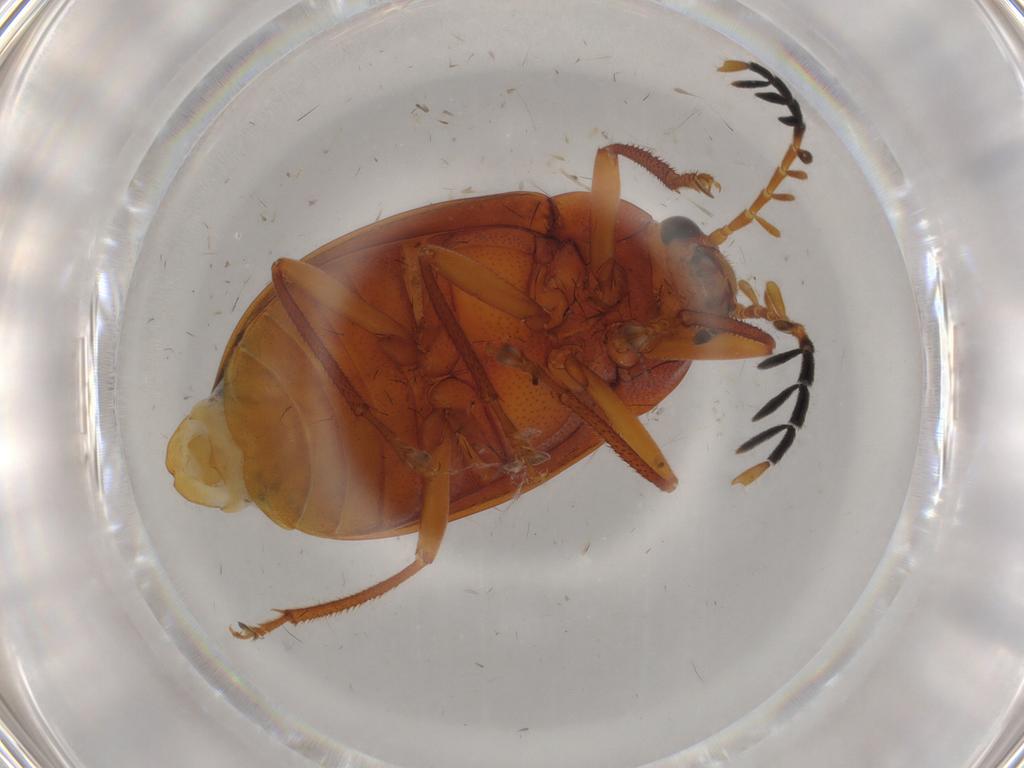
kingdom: Animalia
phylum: Arthropoda
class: Insecta
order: Coleoptera
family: Ptilodactylidae
